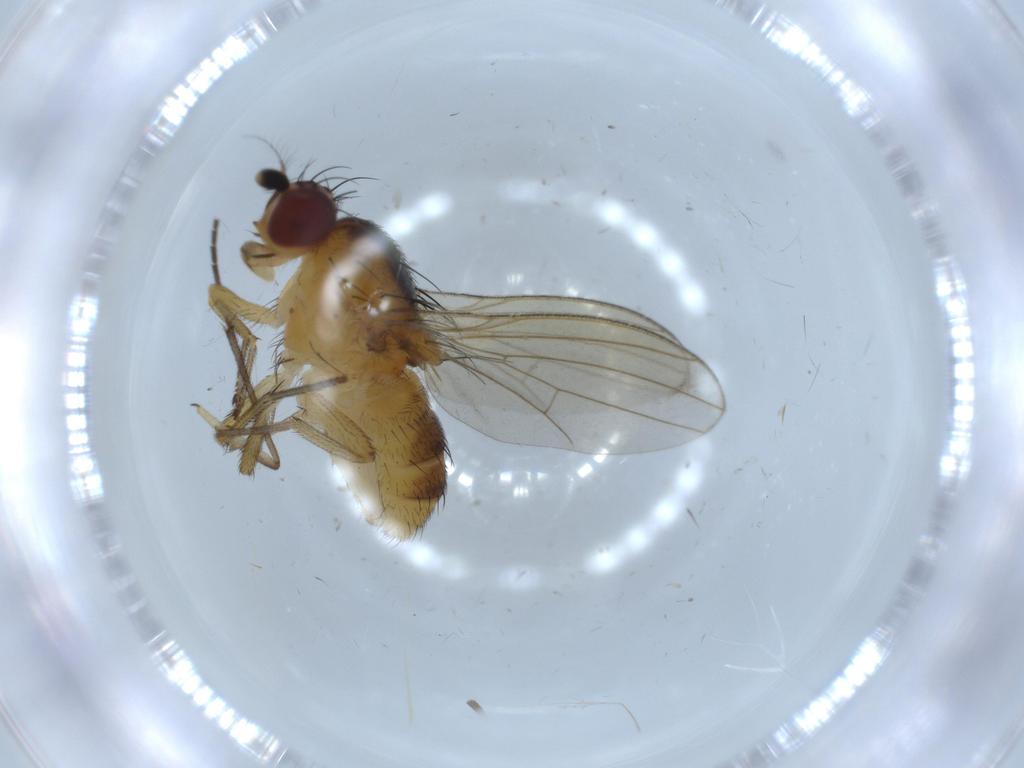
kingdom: Animalia
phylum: Arthropoda
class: Insecta
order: Diptera
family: Lauxaniidae
